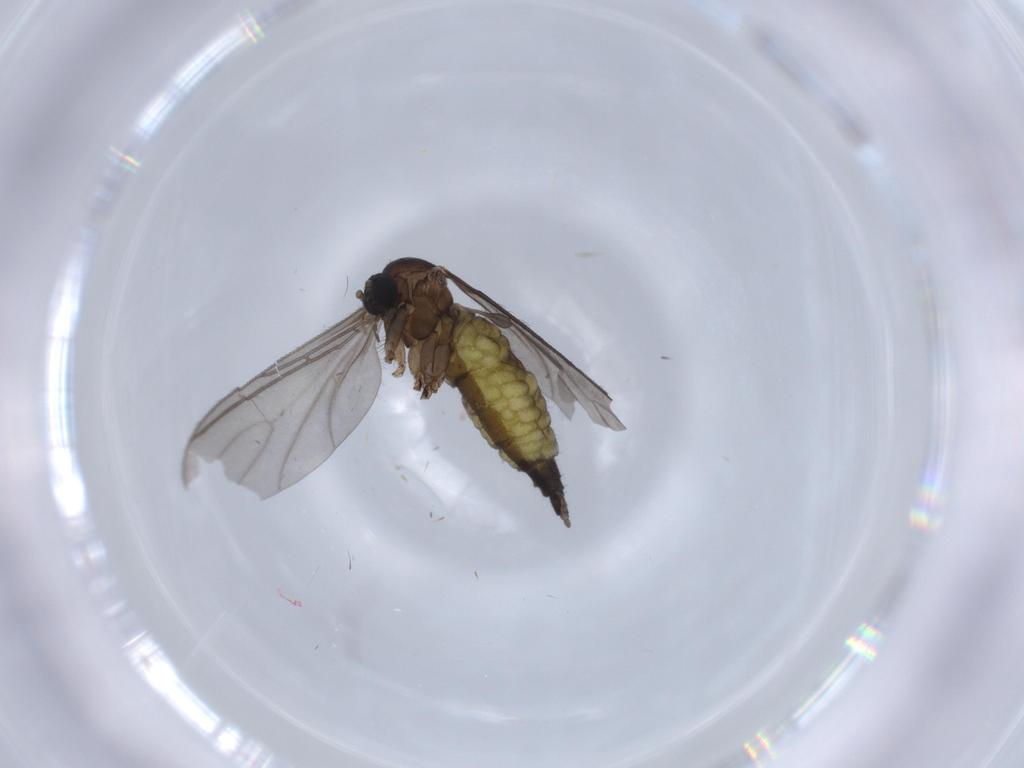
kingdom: Animalia
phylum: Arthropoda
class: Insecta
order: Diptera
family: Sciaridae
